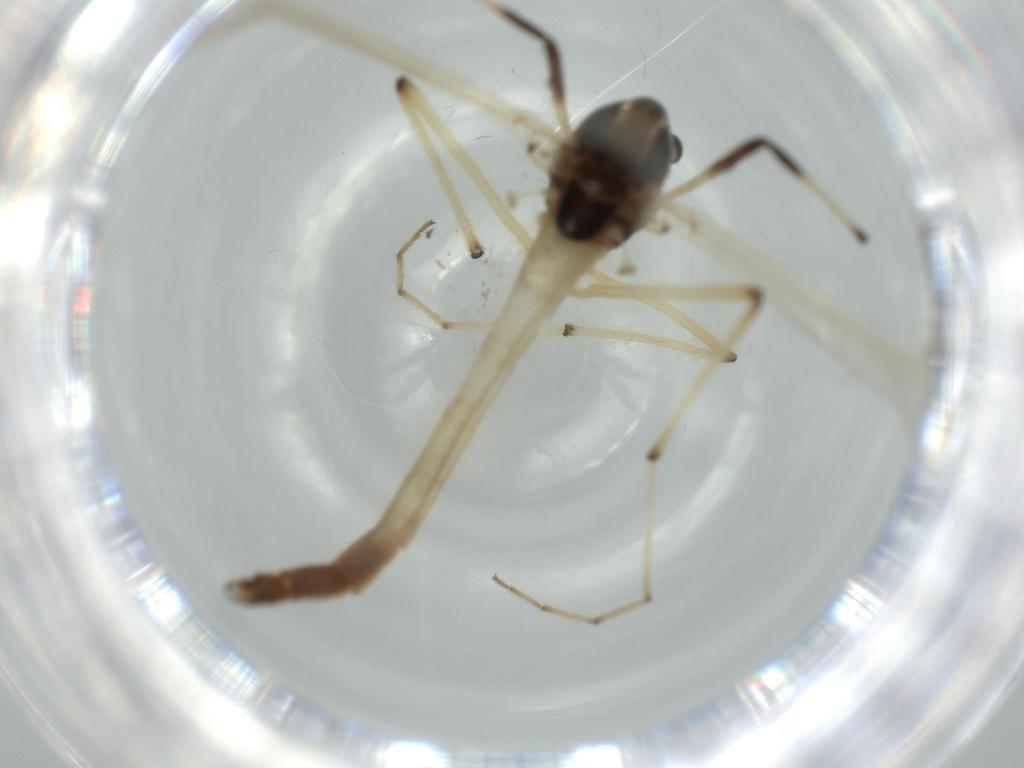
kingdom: Animalia
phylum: Arthropoda
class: Insecta
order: Diptera
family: Chironomidae
